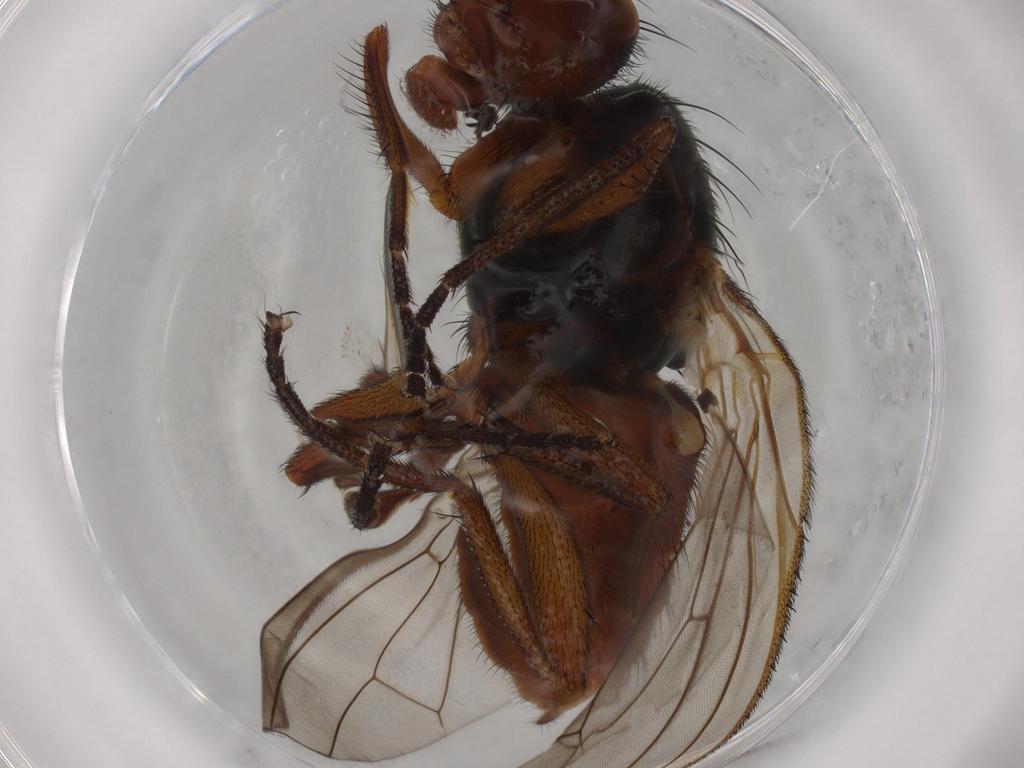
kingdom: Animalia
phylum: Arthropoda
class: Insecta
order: Diptera
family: Heleomyzidae
